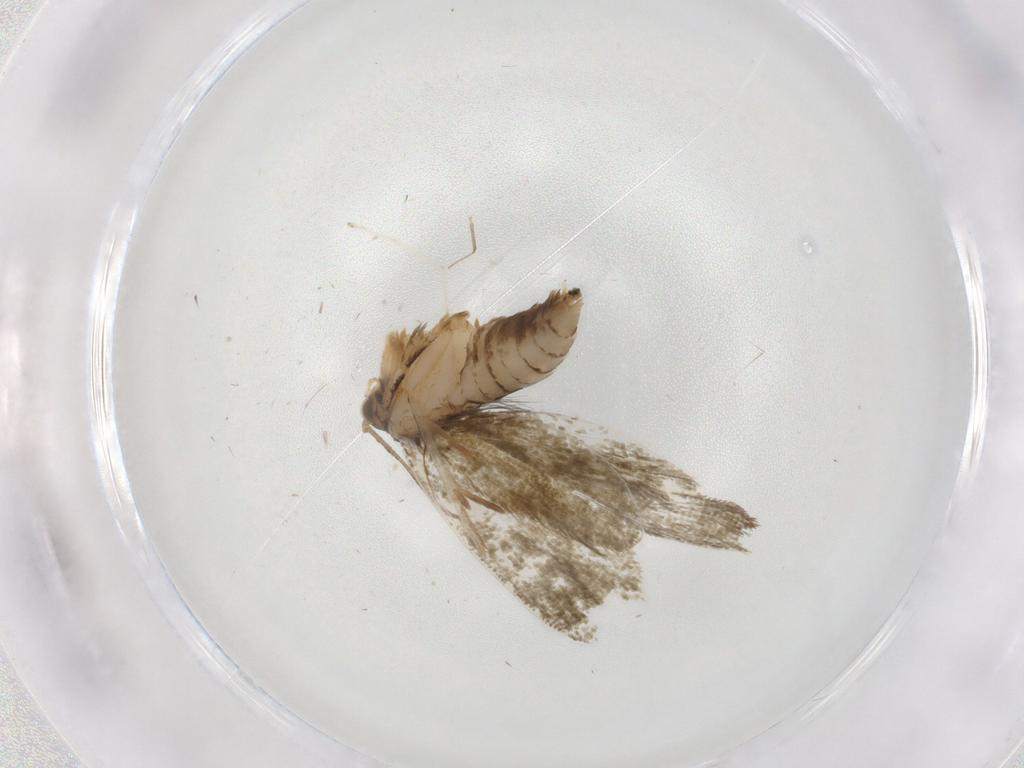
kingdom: Animalia
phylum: Arthropoda
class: Insecta
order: Lepidoptera
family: Crambidae
